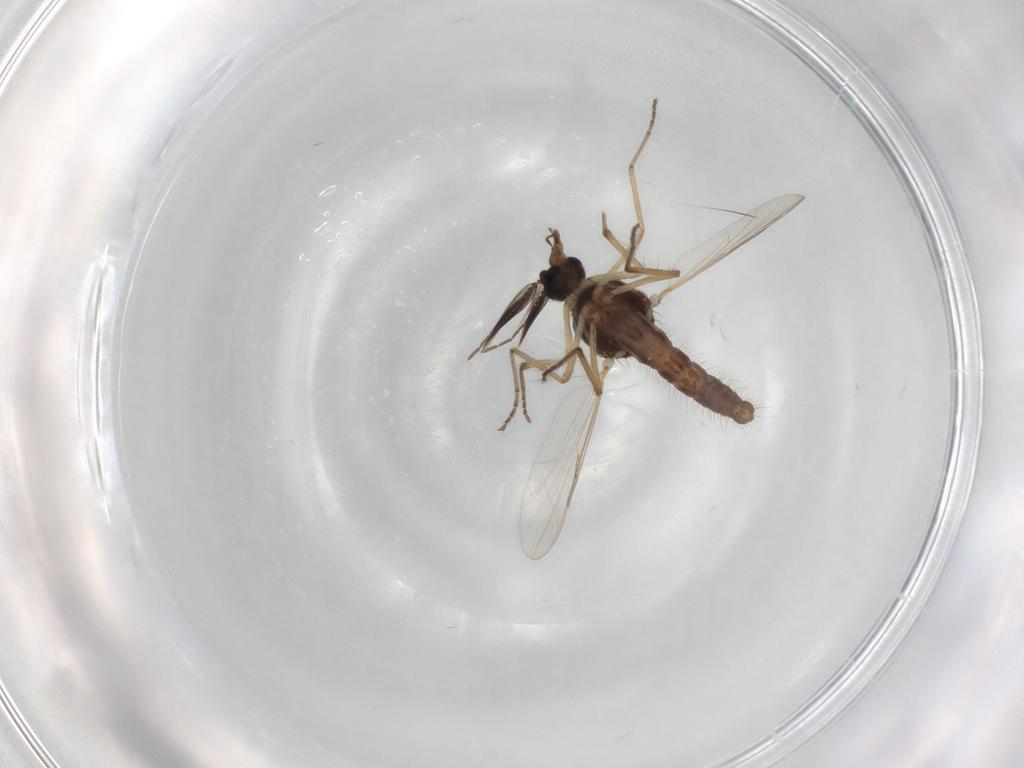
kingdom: Animalia
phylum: Arthropoda
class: Insecta
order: Diptera
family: Ceratopogonidae
